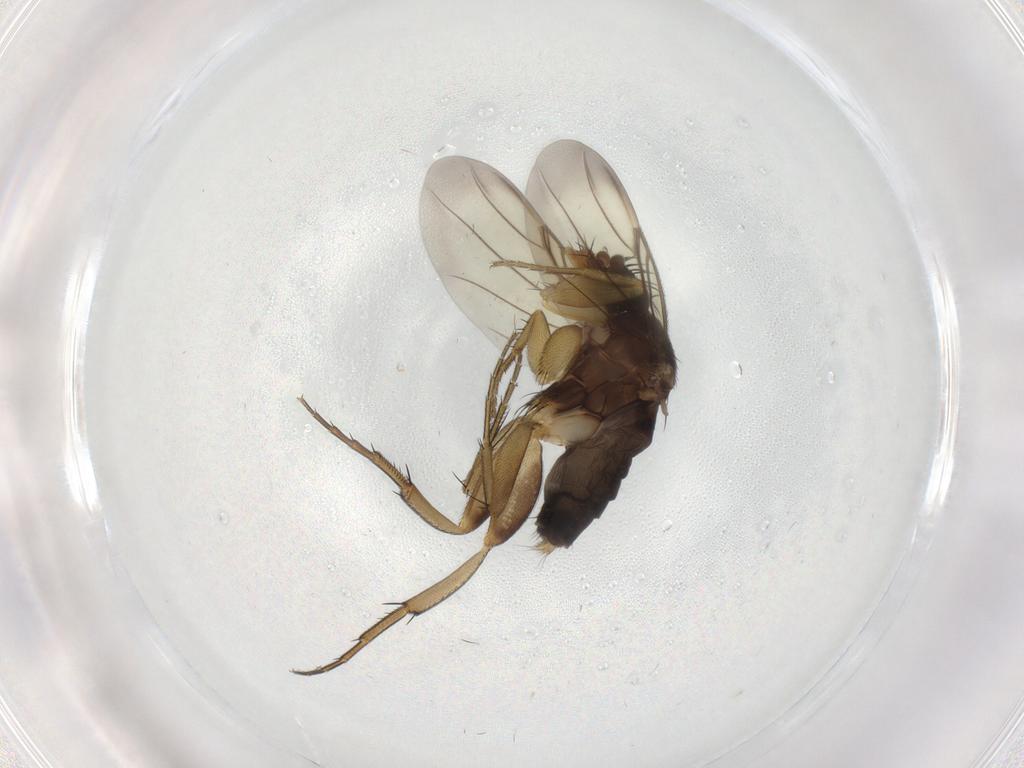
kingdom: Animalia
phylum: Arthropoda
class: Insecta
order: Diptera
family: Phoridae
